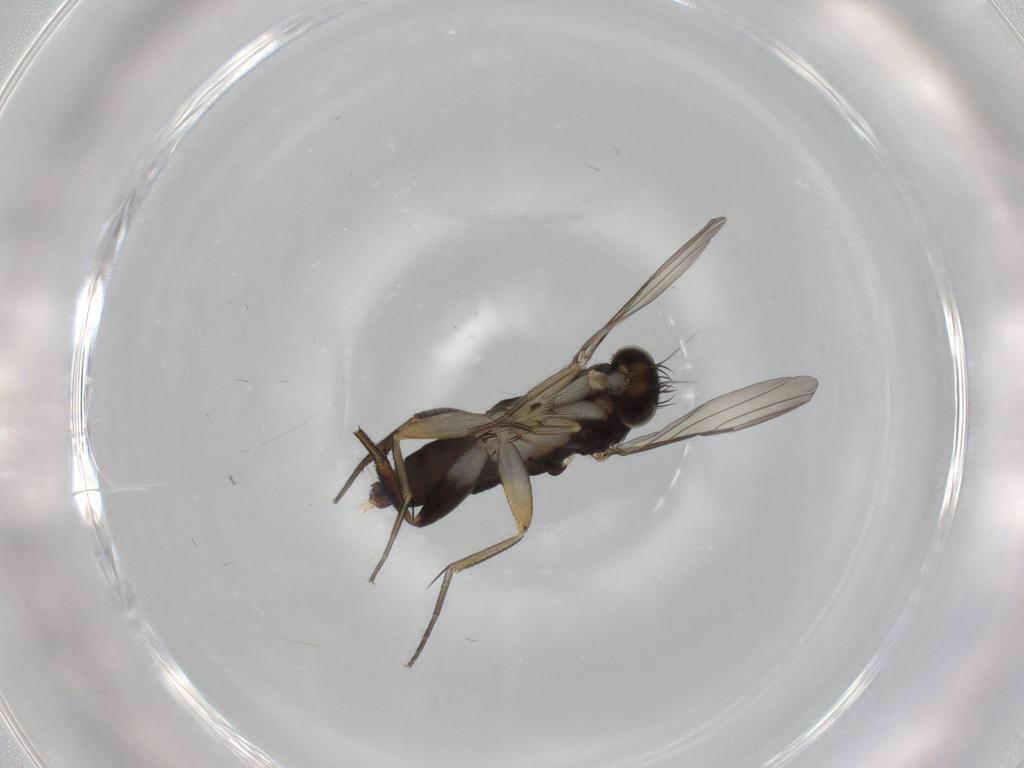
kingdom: Animalia
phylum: Arthropoda
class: Insecta
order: Diptera
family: Phoridae
